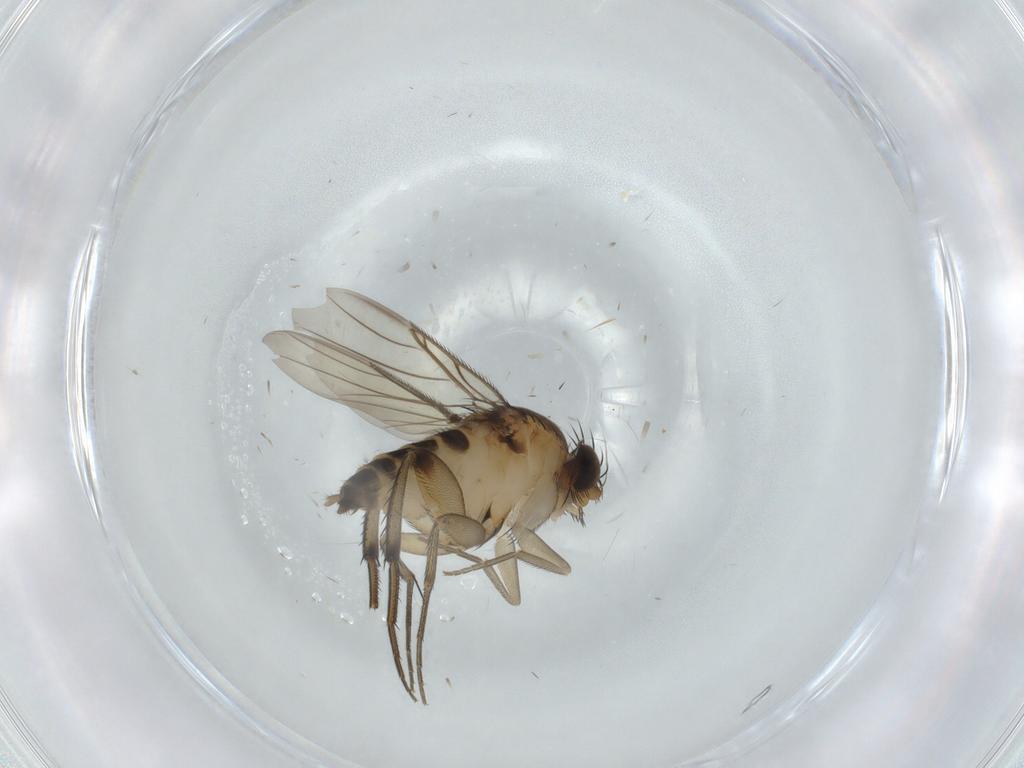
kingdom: Animalia
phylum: Arthropoda
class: Insecta
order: Diptera
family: Phoridae
